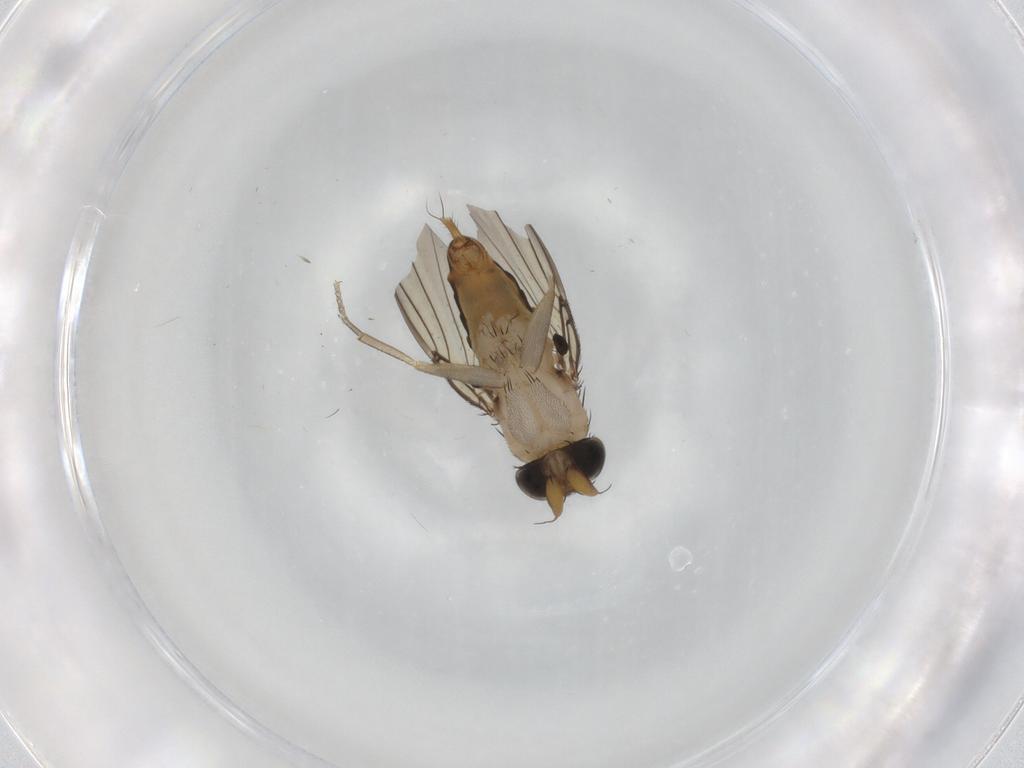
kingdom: Animalia
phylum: Arthropoda
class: Insecta
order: Diptera
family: Phoridae
